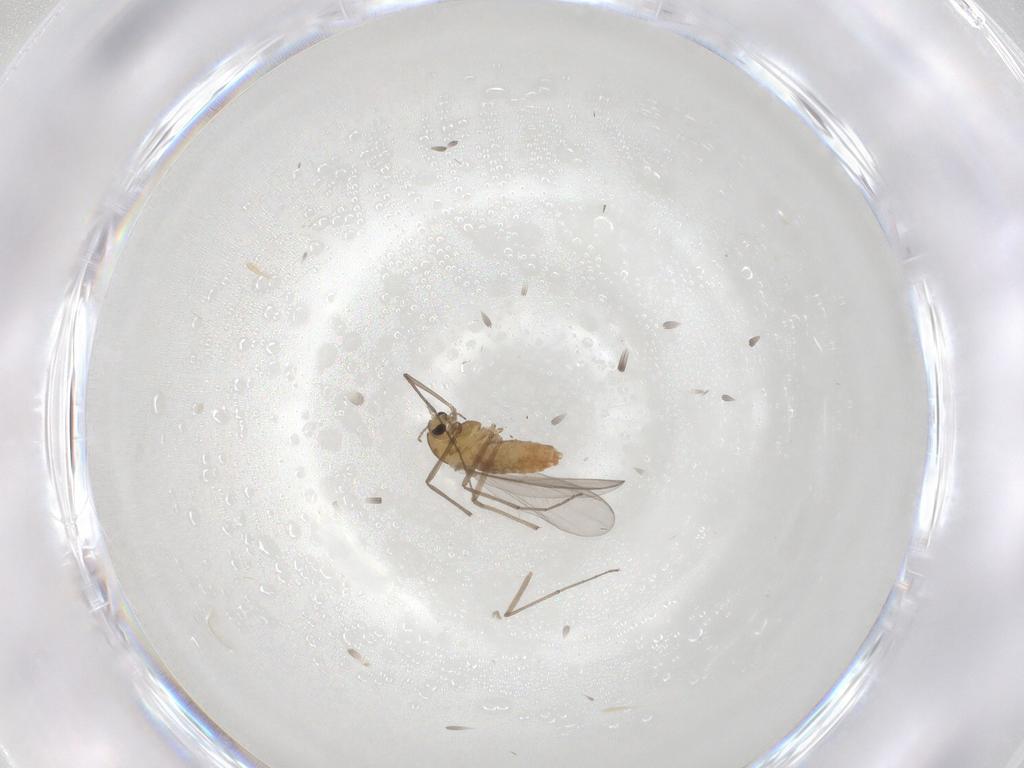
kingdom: Animalia
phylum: Arthropoda
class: Insecta
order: Diptera
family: Chironomidae
